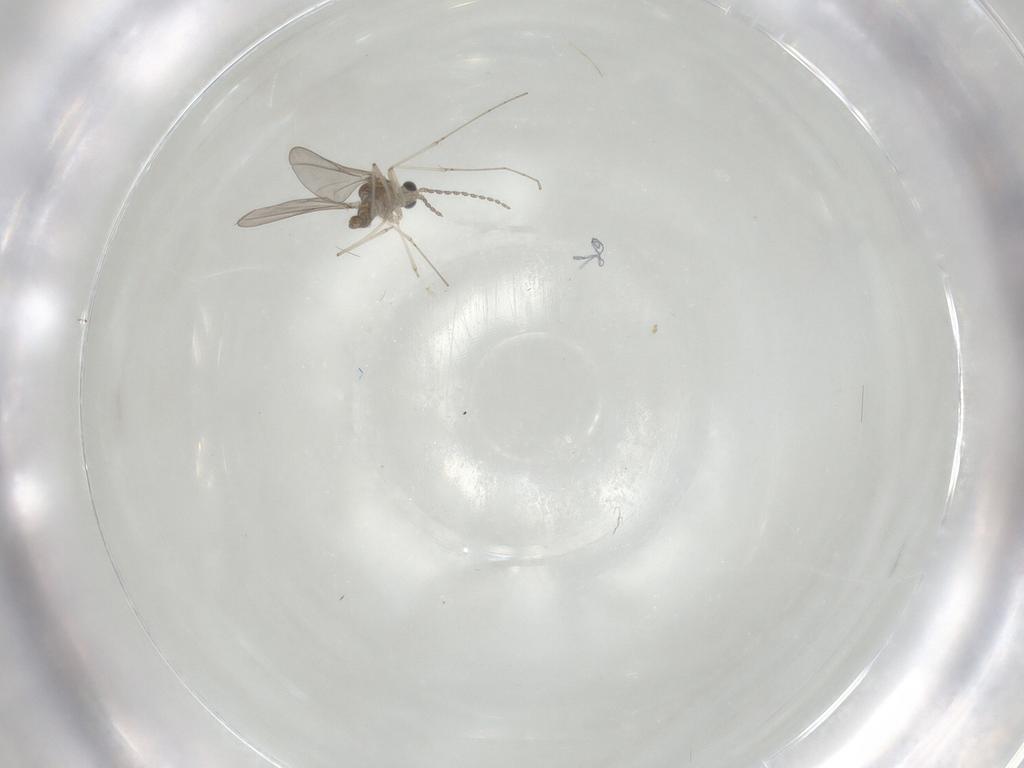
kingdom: Animalia
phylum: Arthropoda
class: Insecta
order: Diptera
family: Cecidomyiidae
